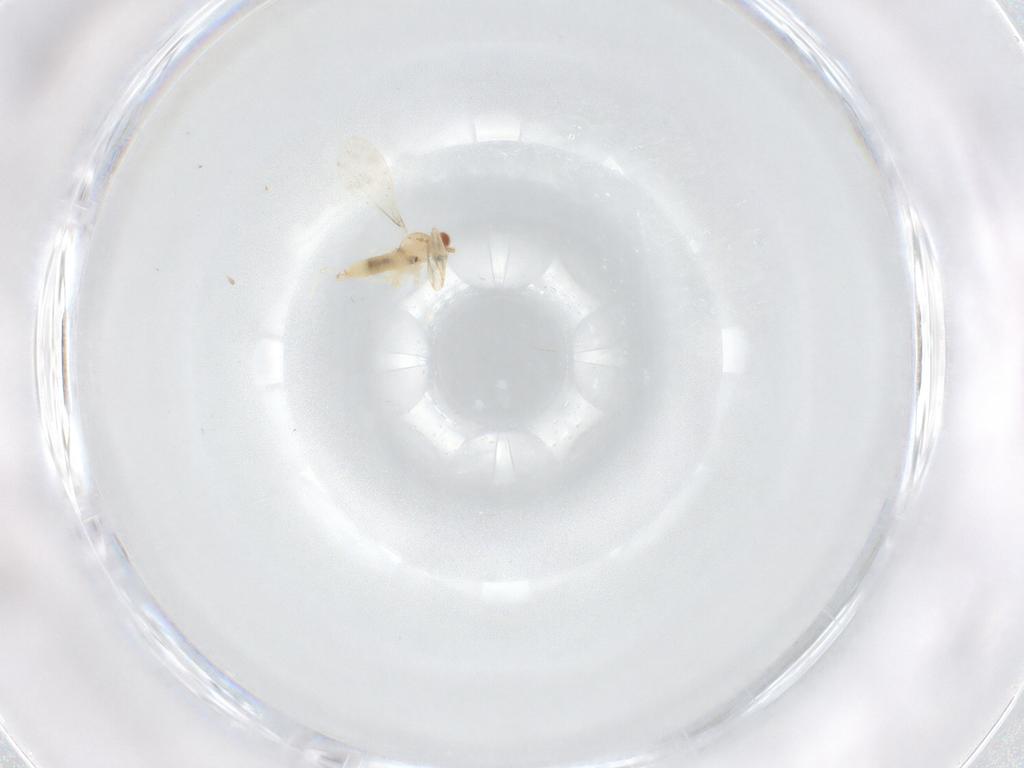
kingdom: Animalia
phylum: Arthropoda
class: Insecta
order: Diptera
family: Cecidomyiidae
